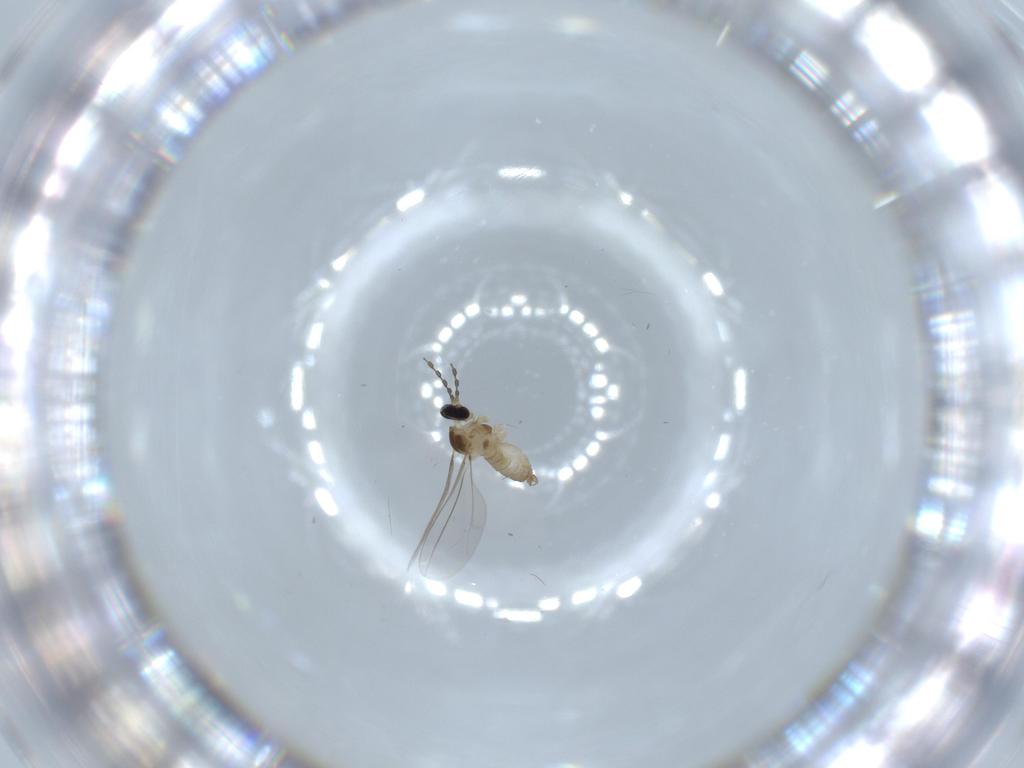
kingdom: Animalia
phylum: Arthropoda
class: Insecta
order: Diptera
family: Cecidomyiidae
